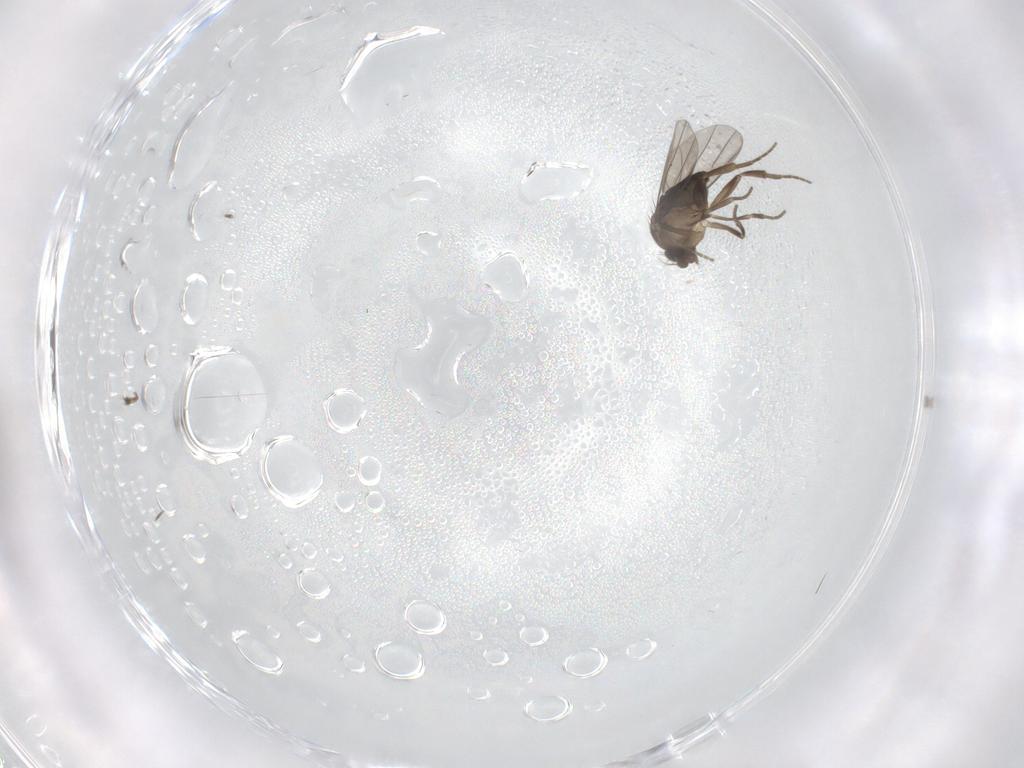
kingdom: Animalia
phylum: Arthropoda
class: Insecta
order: Diptera
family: Phoridae
